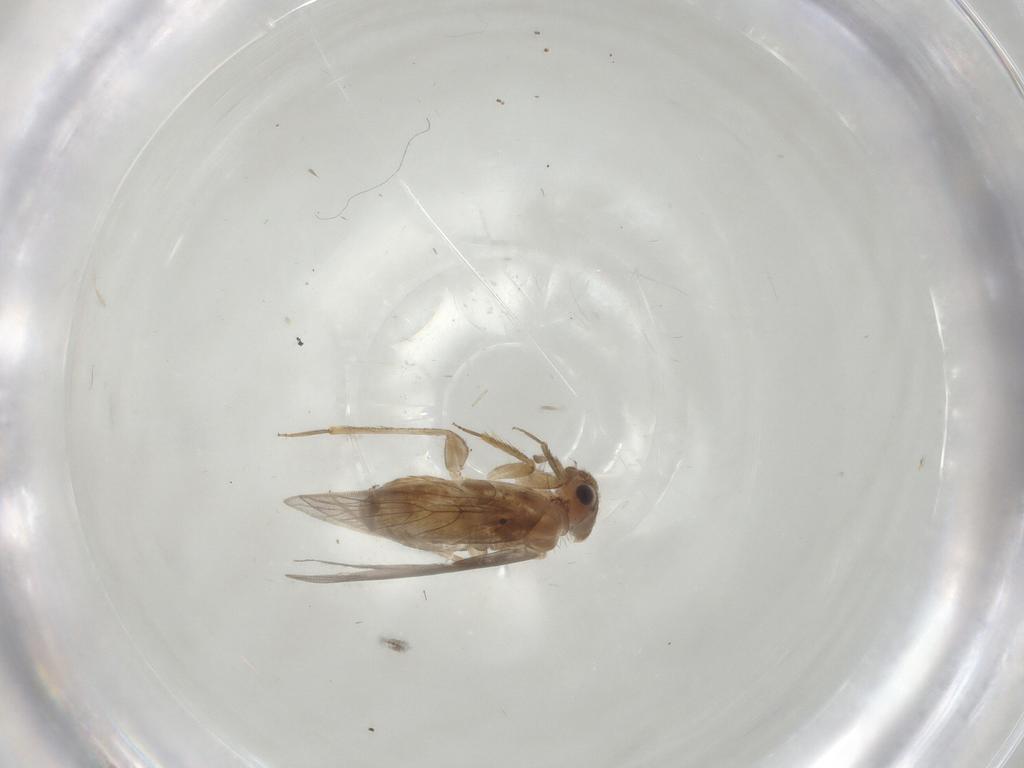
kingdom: Animalia
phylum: Arthropoda
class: Insecta
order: Psocodea
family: Lepidopsocidae
